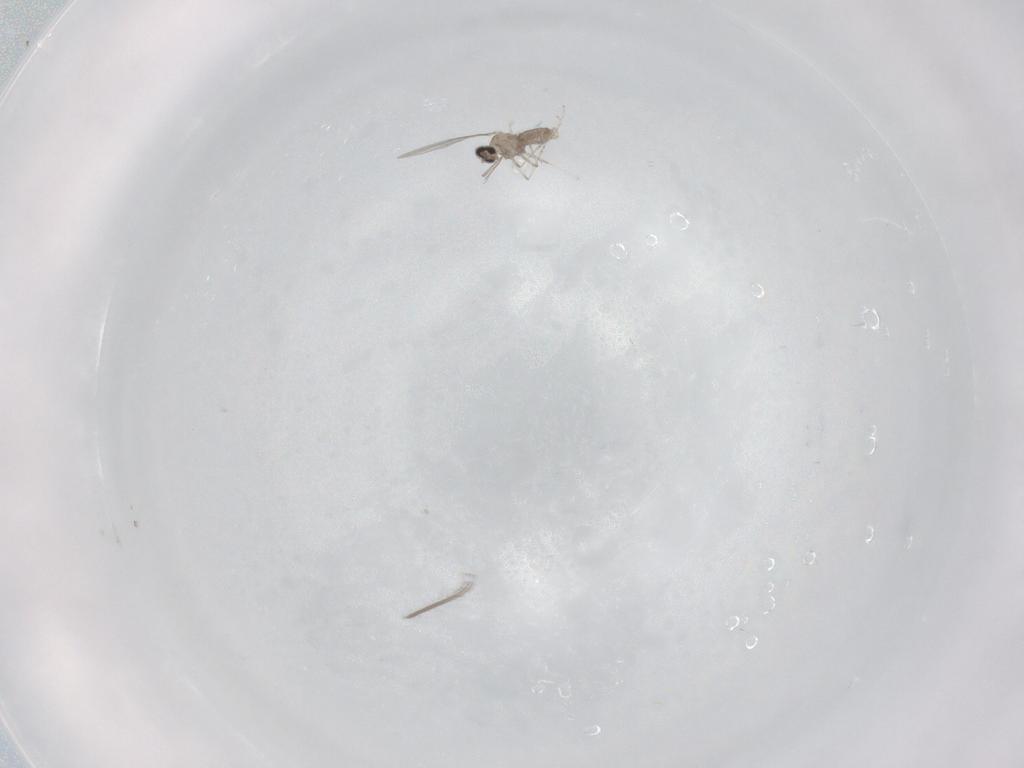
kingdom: Animalia
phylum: Arthropoda
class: Insecta
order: Diptera
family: Cecidomyiidae
